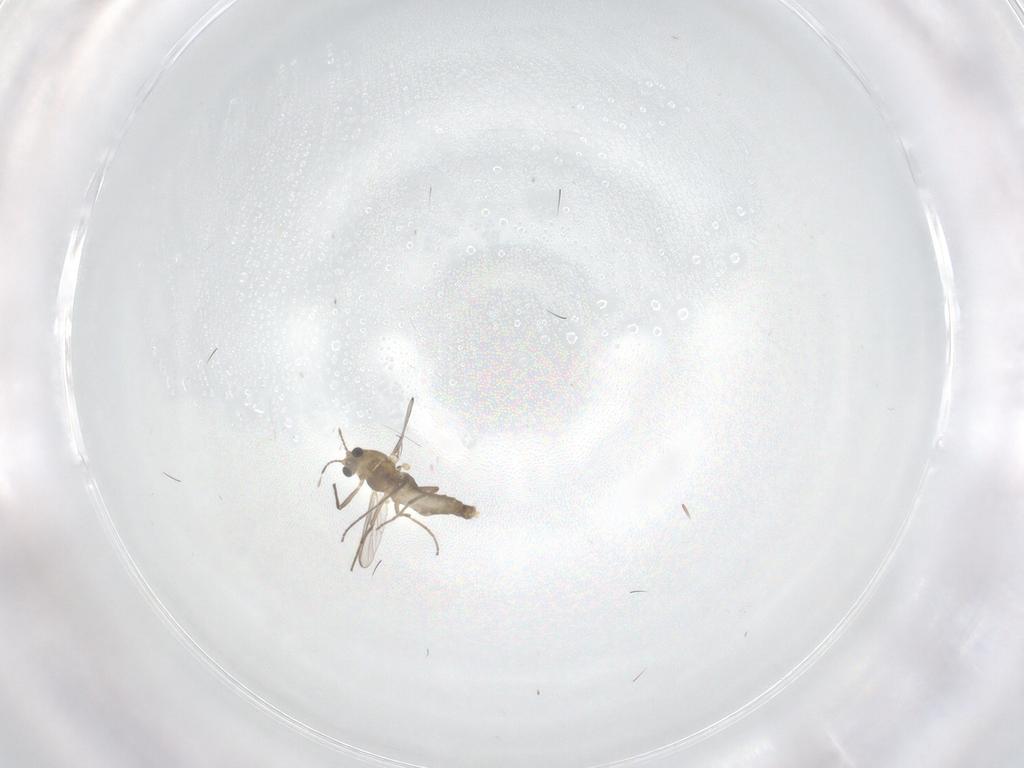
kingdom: Animalia
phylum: Arthropoda
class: Insecta
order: Diptera
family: Chironomidae
